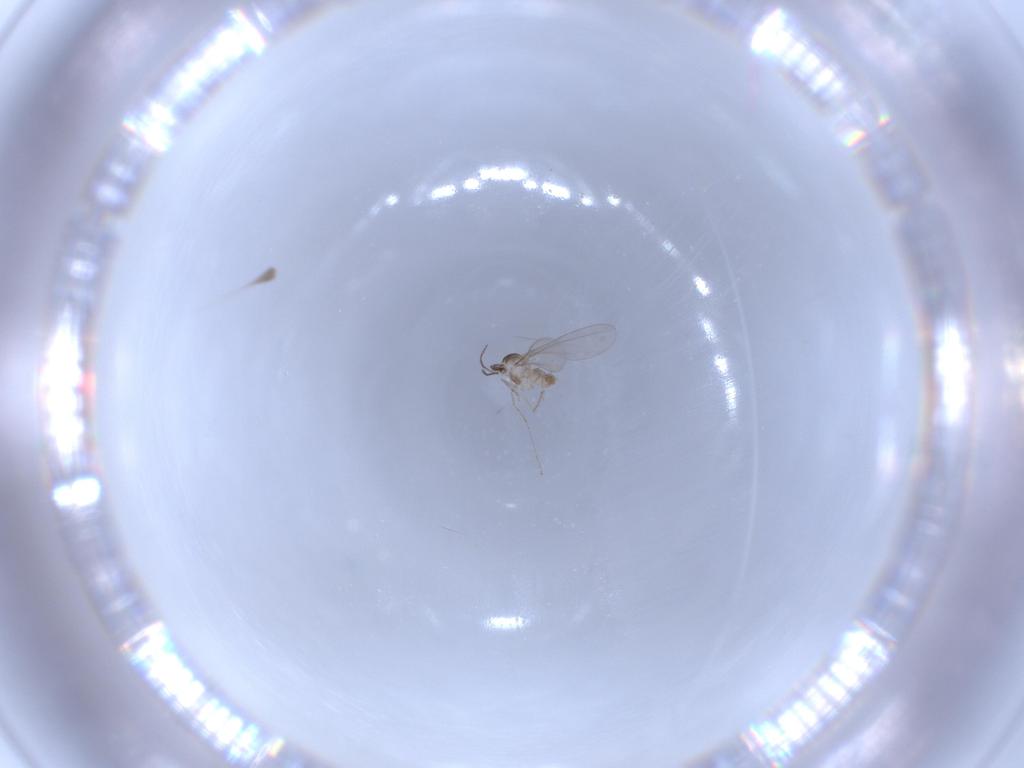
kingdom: Animalia
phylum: Arthropoda
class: Insecta
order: Diptera
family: Cecidomyiidae
